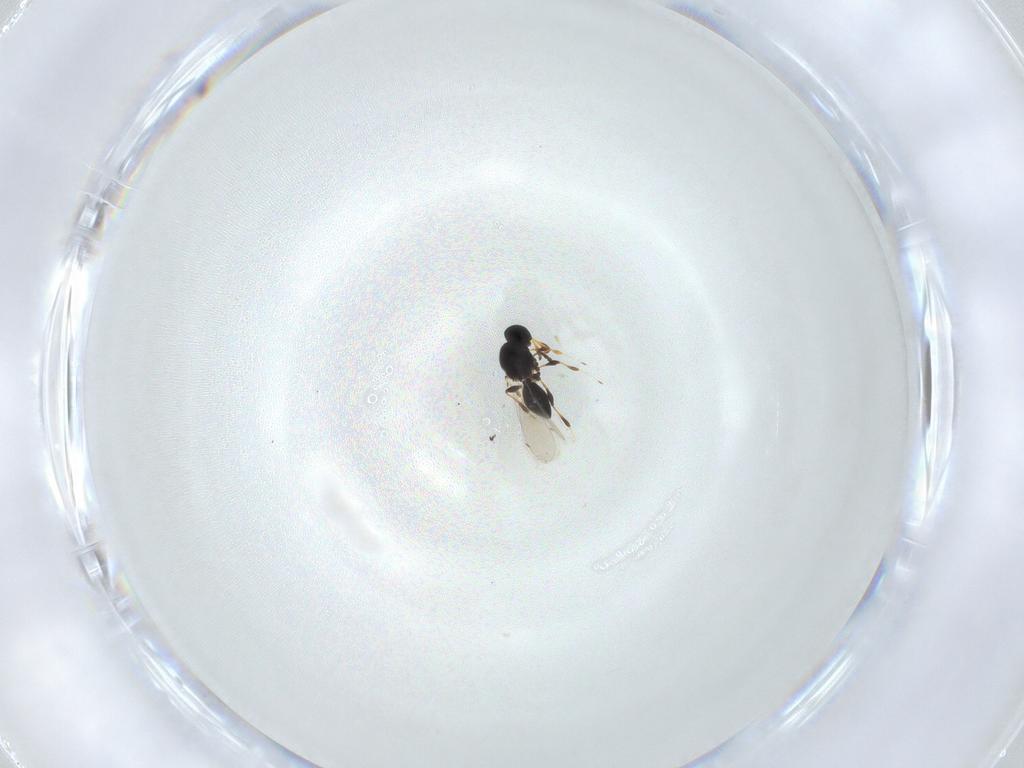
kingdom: Animalia
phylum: Arthropoda
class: Insecta
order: Hymenoptera
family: Platygastridae
